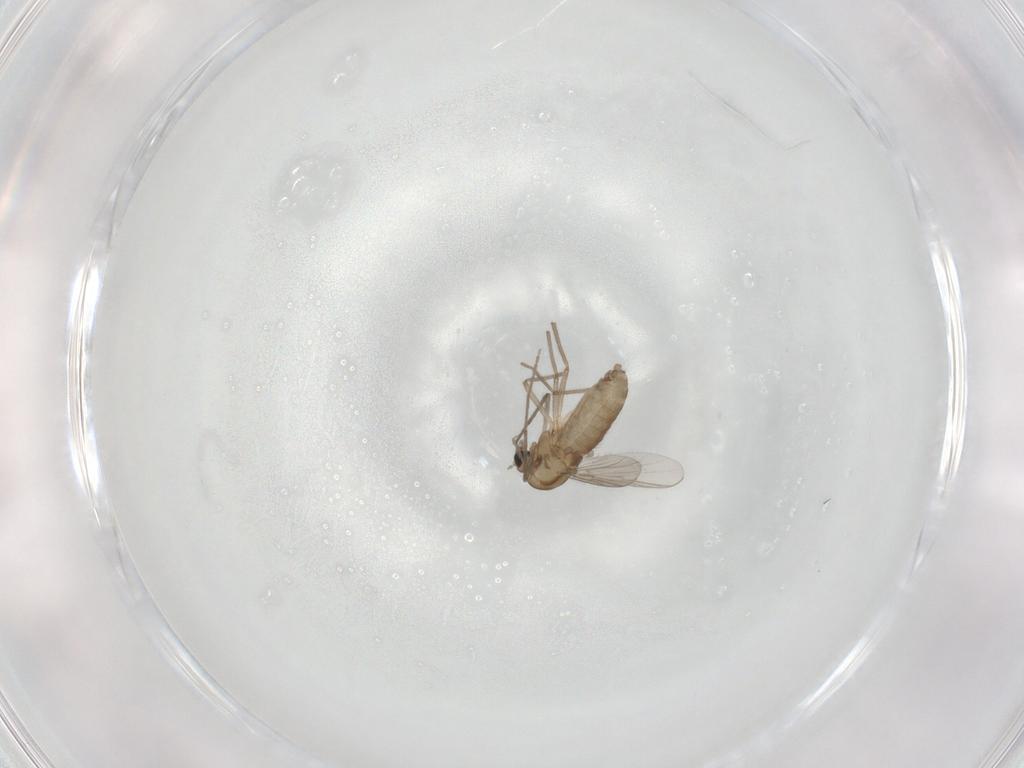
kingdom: Animalia
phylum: Arthropoda
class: Insecta
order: Diptera
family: Chironomidae
